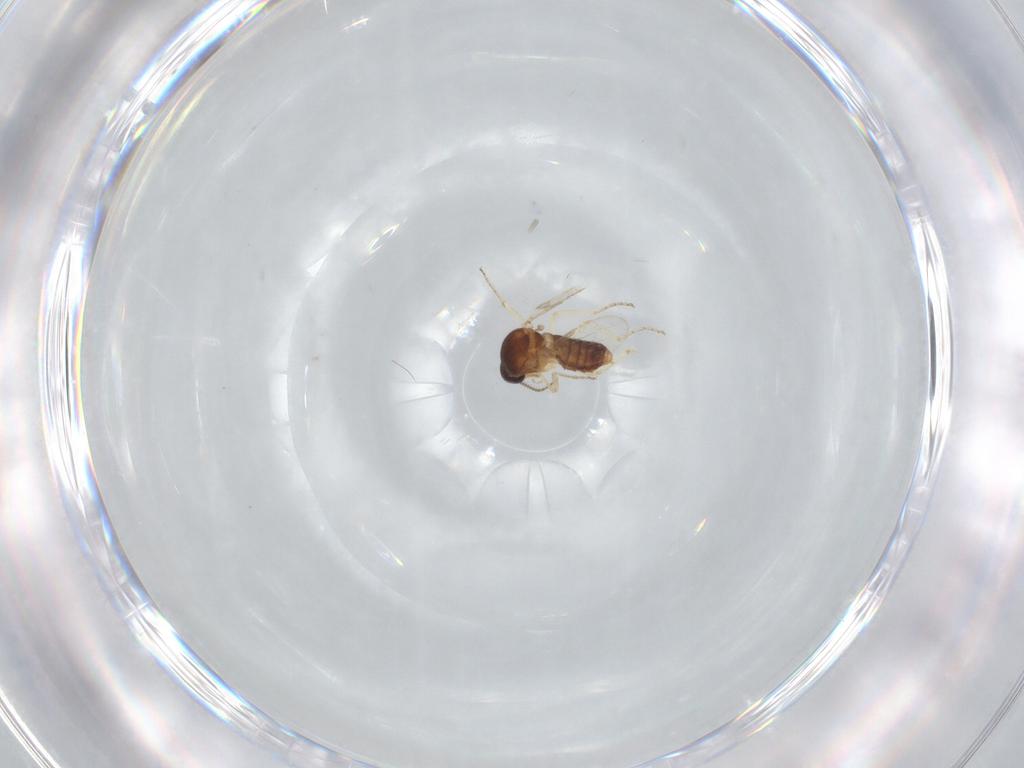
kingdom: Animalia
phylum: Arthropoda
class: Insecta
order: Diptera
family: Ceratopogonidae
